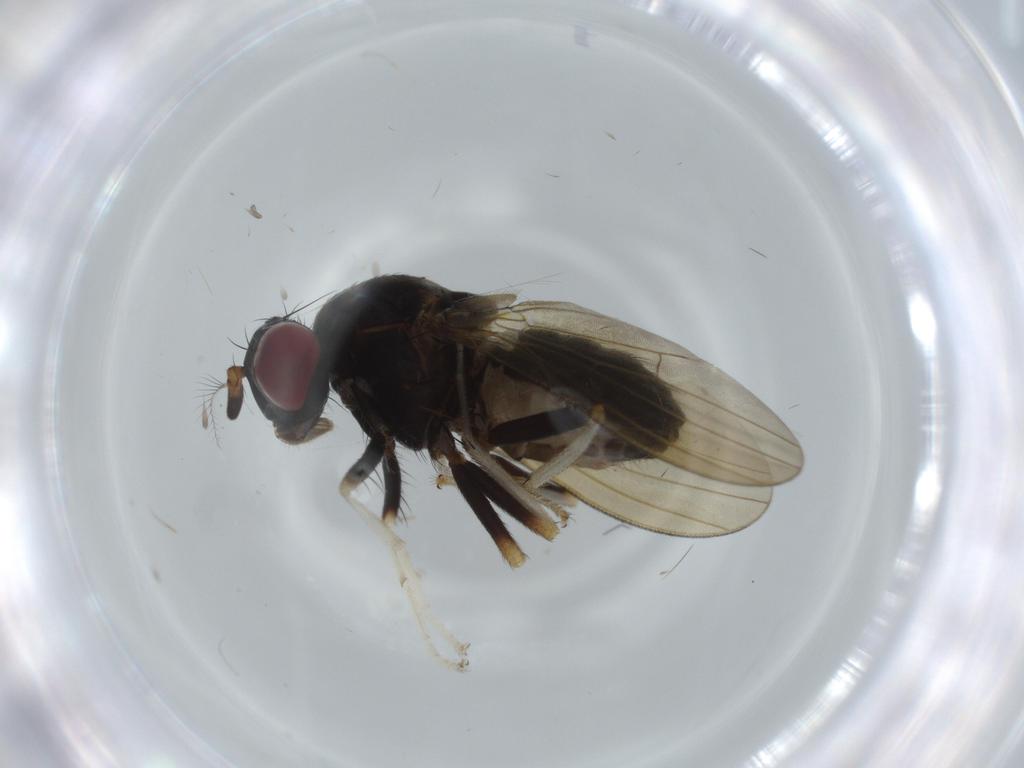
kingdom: Animalia
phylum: Arthropoda
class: Insecta
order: Diptera
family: Lauxaniidae
